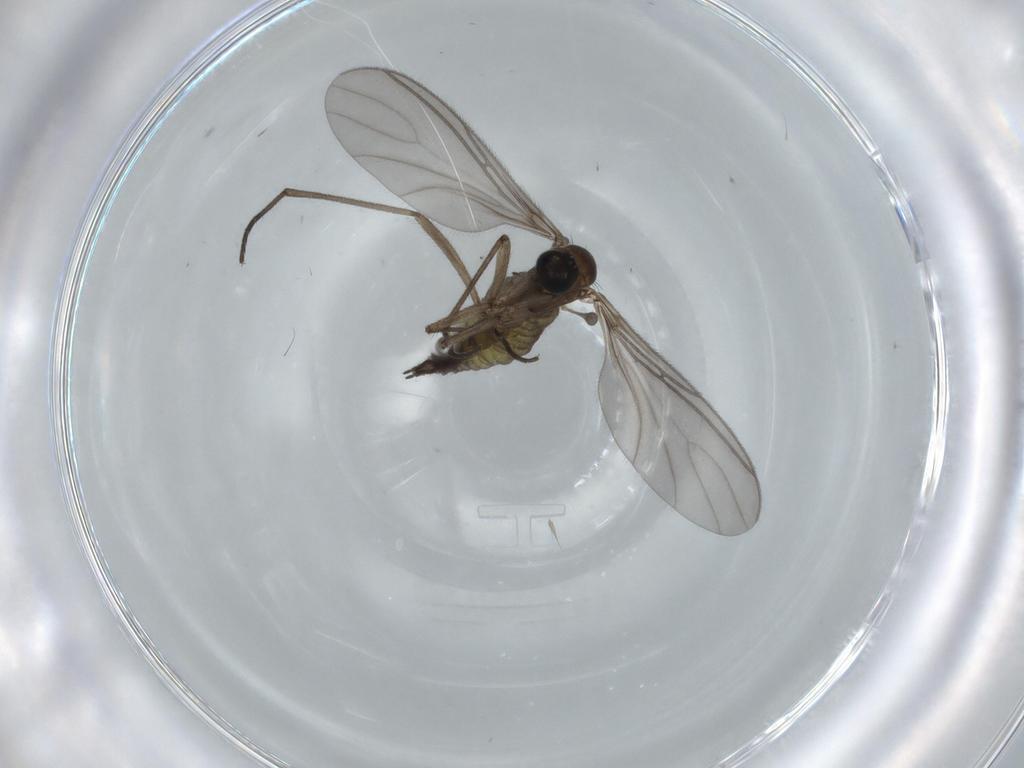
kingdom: Animalia
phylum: Arthropoda
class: Insecta
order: Diptera
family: Sciaridae
